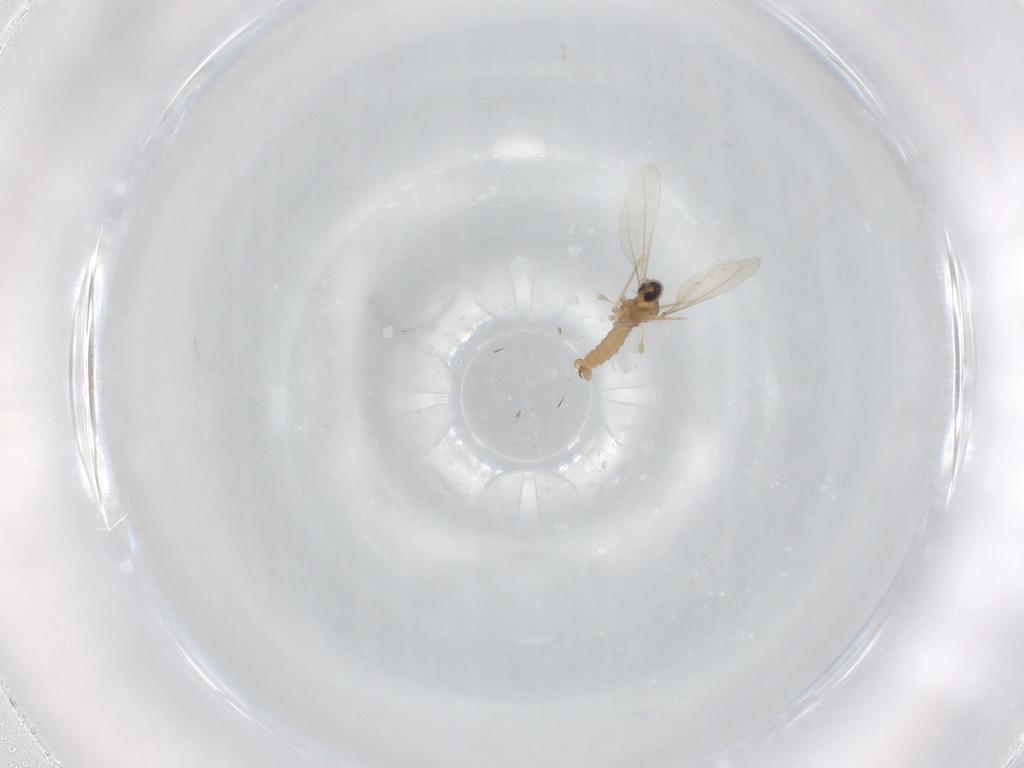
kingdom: Animalia
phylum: Arthropoda
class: Insecta
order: Diptera
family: Cecidomyiidae
